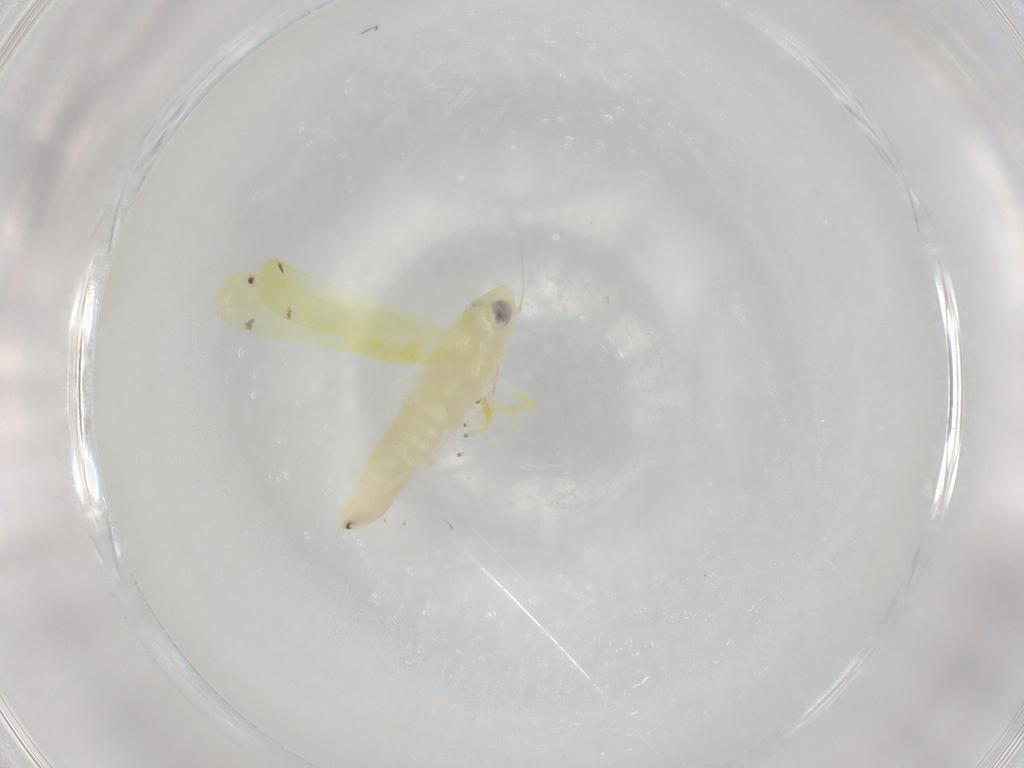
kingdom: Animalia
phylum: Arthropoda
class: Insecta
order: Hemiptera
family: Cicadellidae
